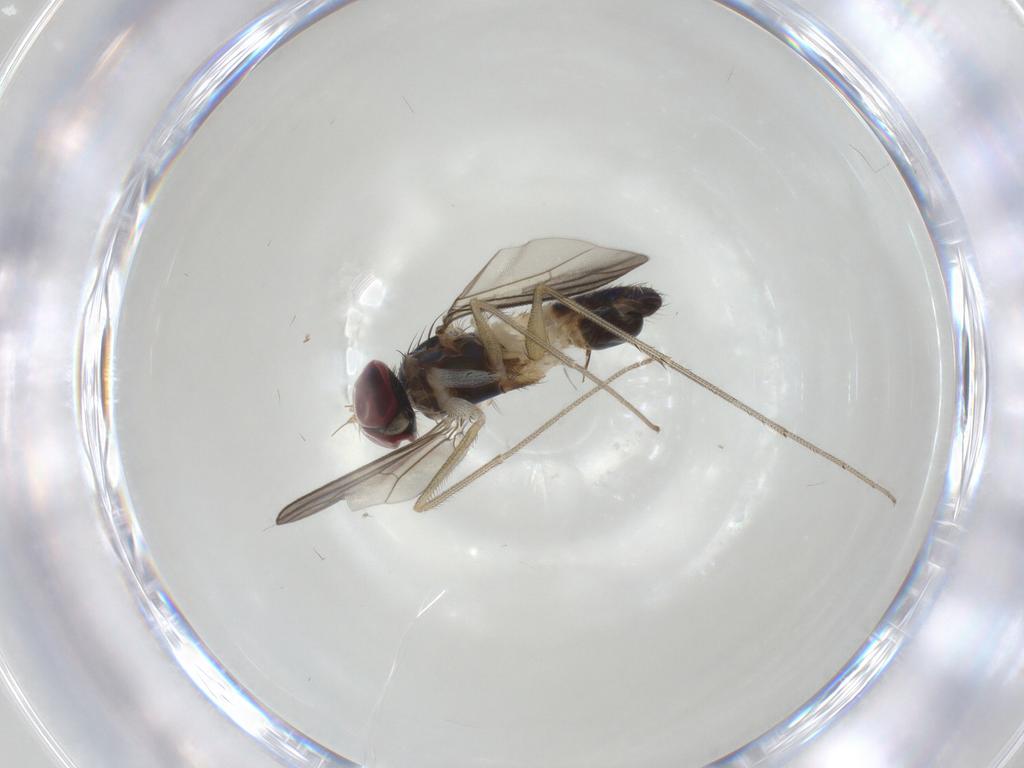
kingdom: Animalia
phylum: Arthropoda
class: Insecta
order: Diptera
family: Dolichopodidae
